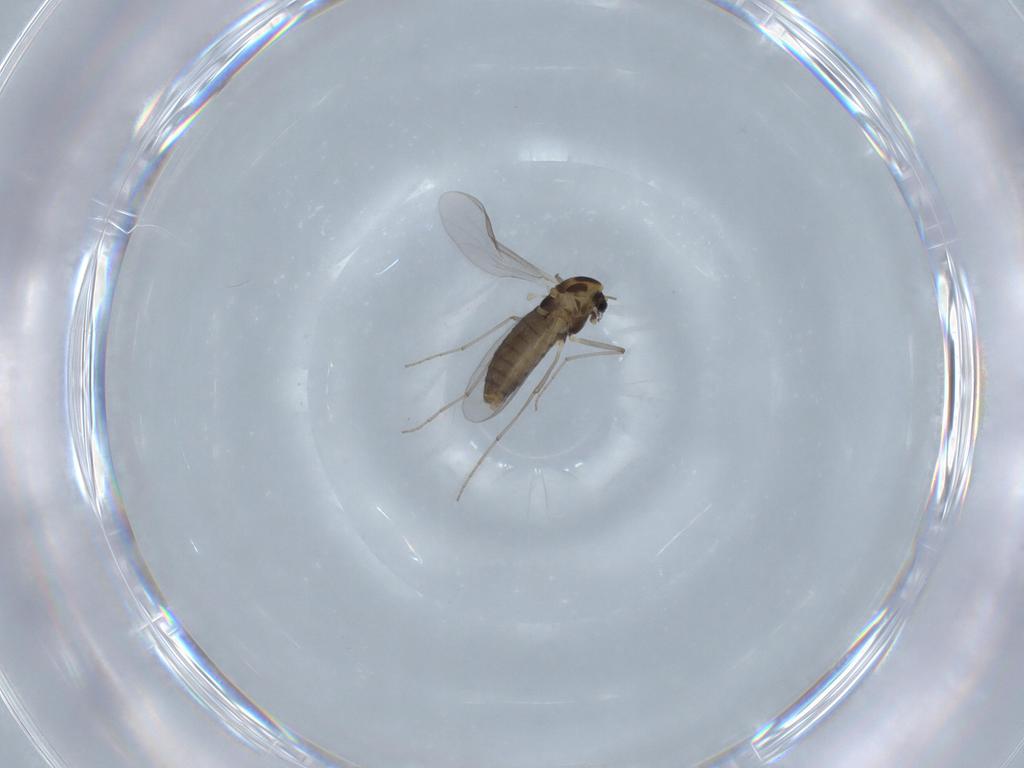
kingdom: Animalia
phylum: Arthropoda
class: Insecta
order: Diptera
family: Chironomidae
